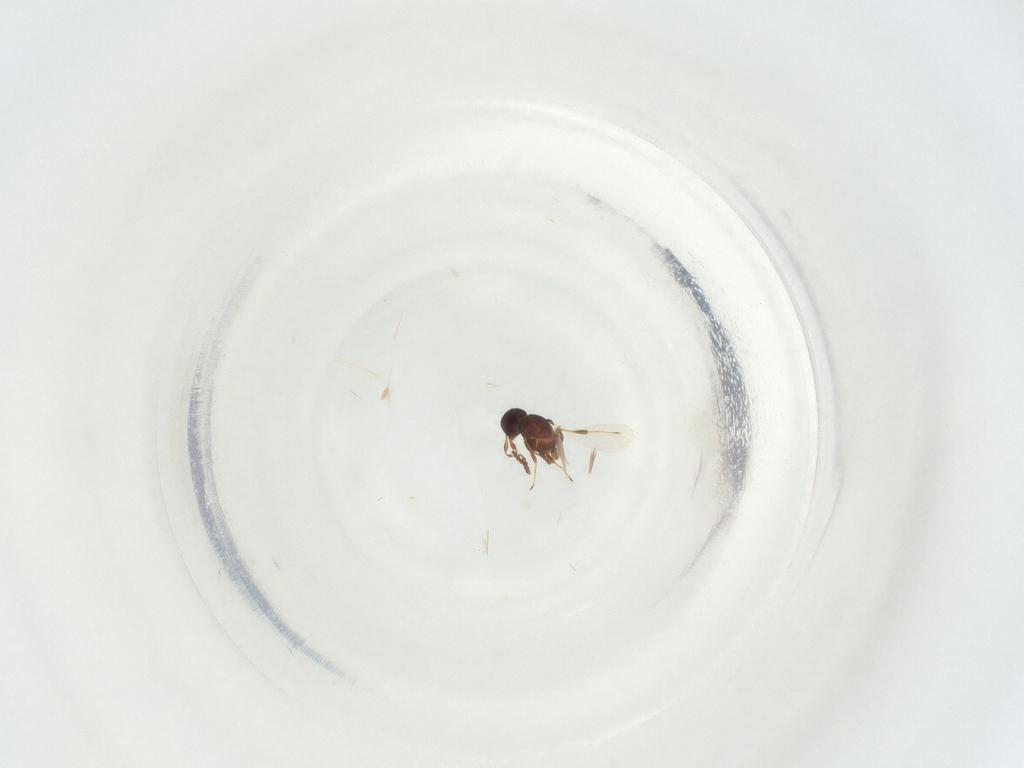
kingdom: Animalia
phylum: Arthropoda
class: Insecta
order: Hymenoptera
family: Platygastridae
